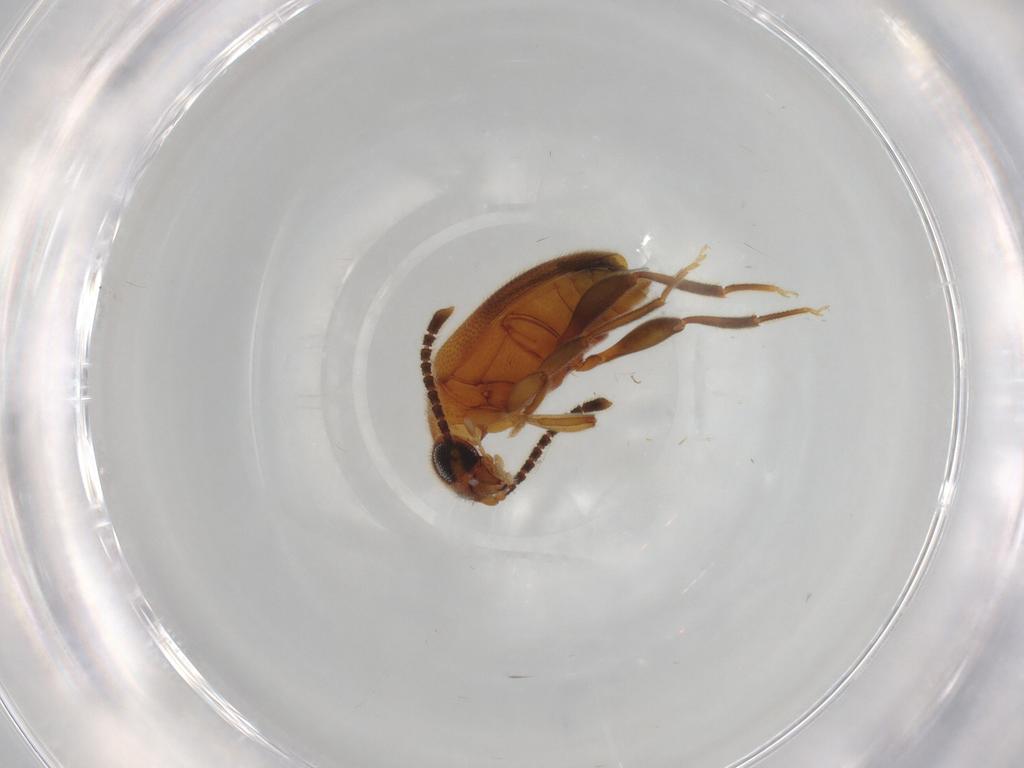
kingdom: Animalia
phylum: Arthropoda
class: Insecta
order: Coleoptera
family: Aderidae
